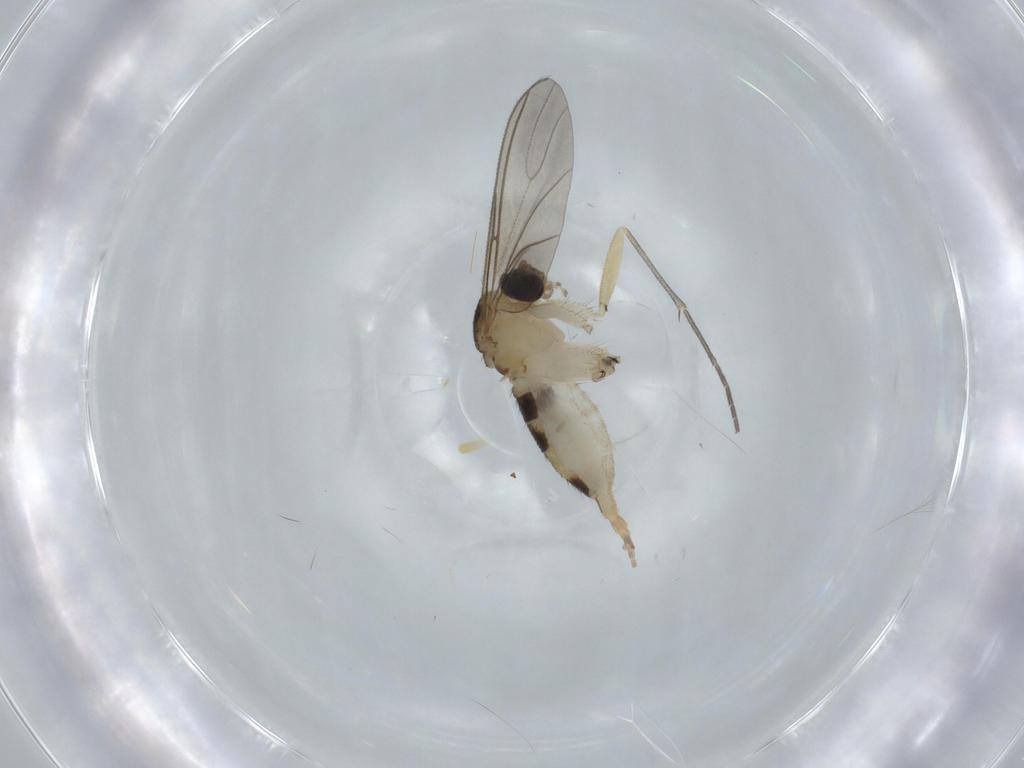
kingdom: Animalia
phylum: Arthropoda
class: Insecta
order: Diptera
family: Sciaridae
